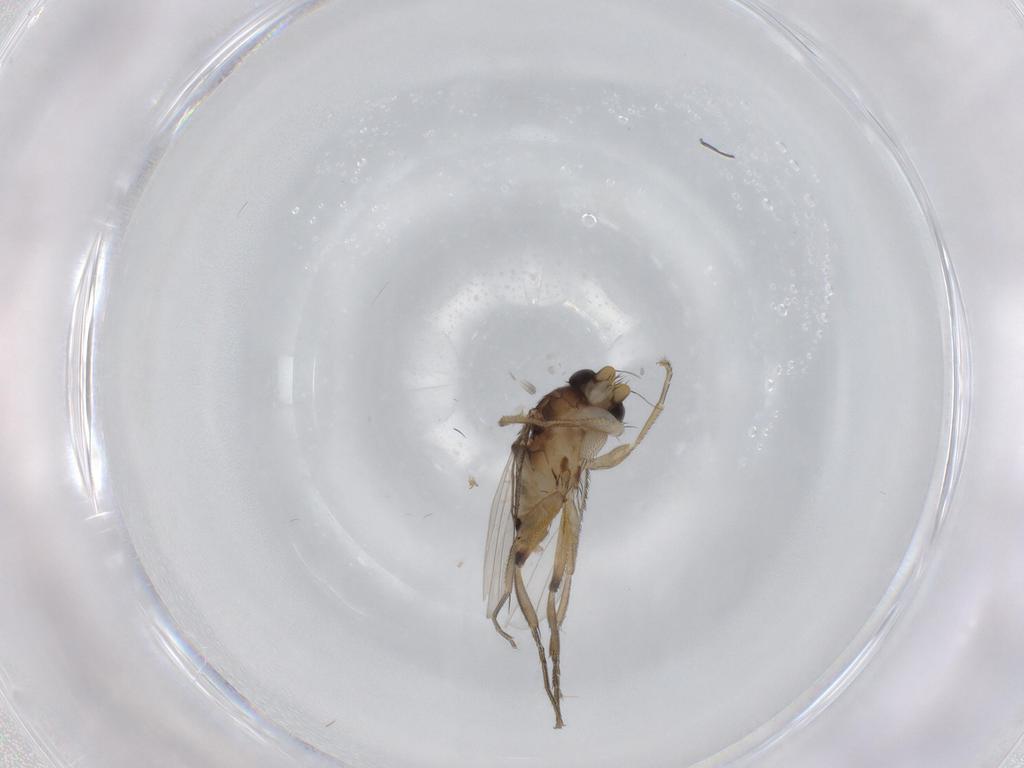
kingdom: Animalia
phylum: Arthropoda
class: Insecta
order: Diptera
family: Phoridae
